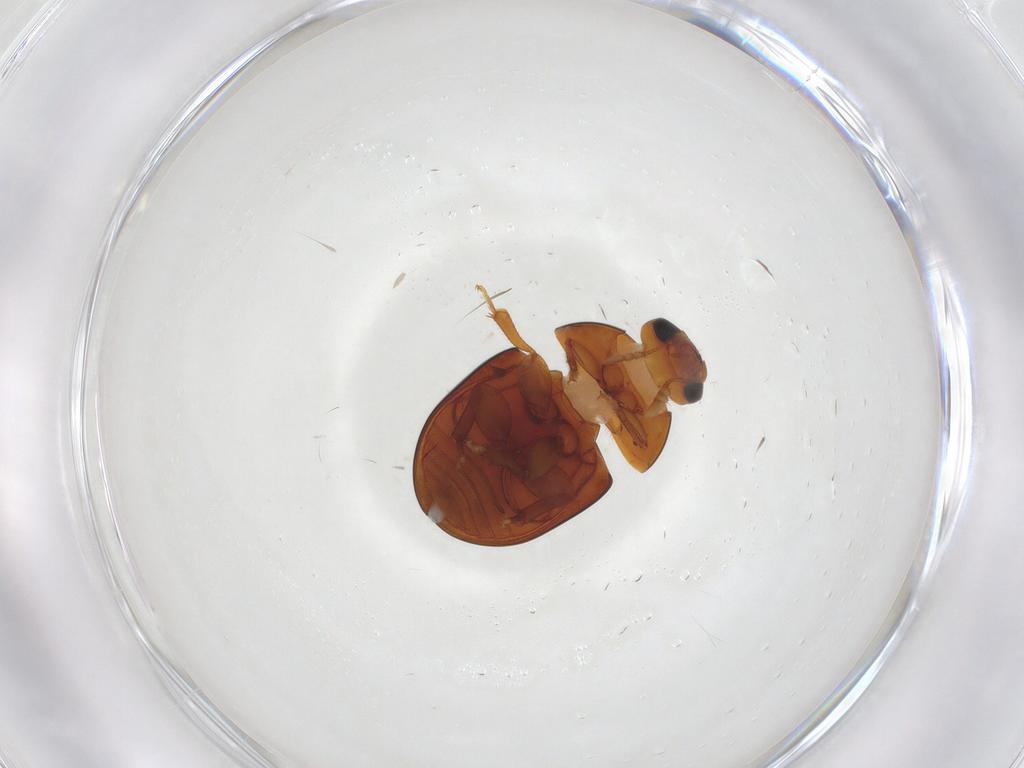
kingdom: Animalia
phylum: Arthropoda
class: Insecta
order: Coleoptera
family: Phalacridae
